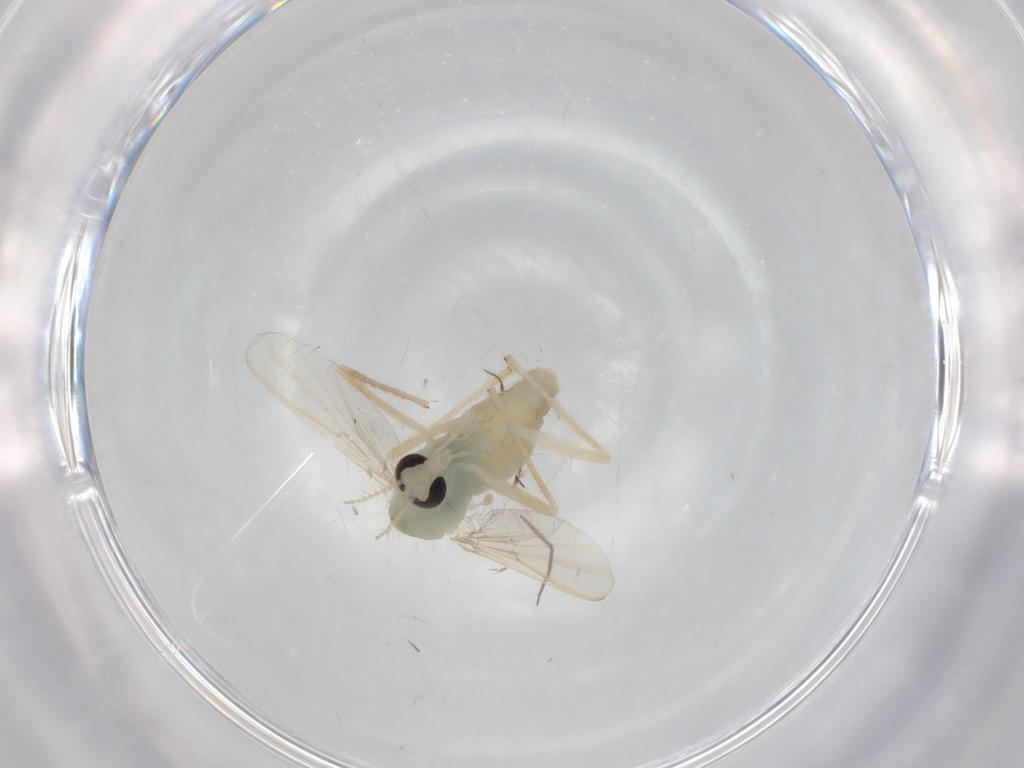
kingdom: Animalia
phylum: Arthropoda
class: Insecta
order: Diptera
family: Chironomidae
